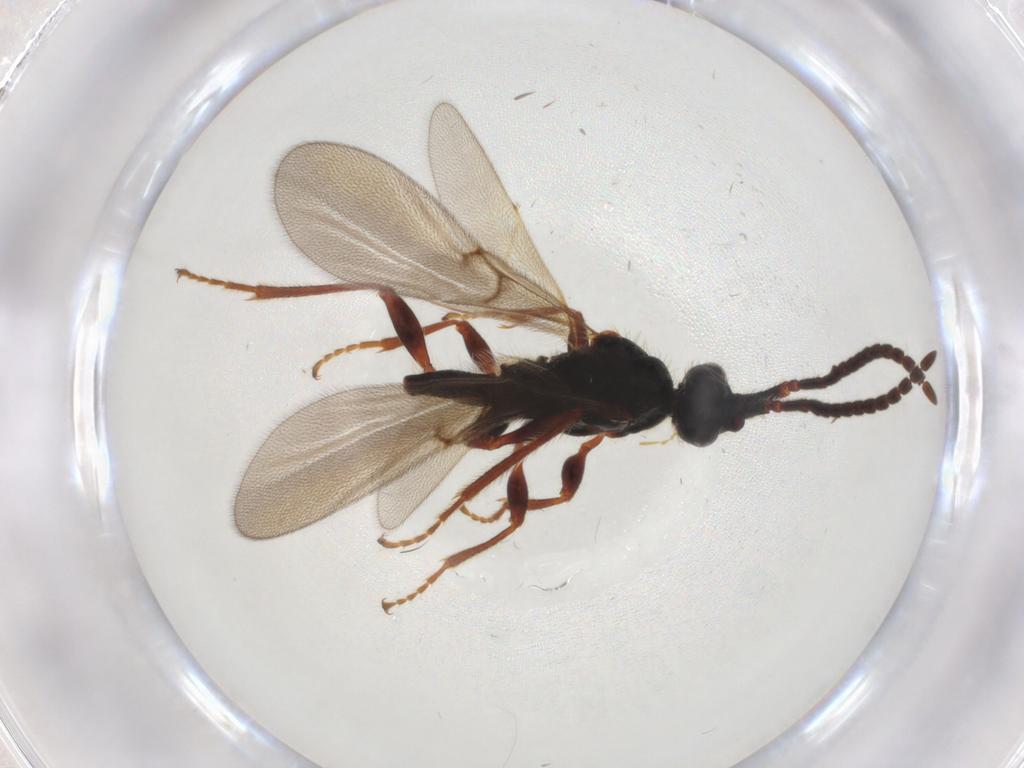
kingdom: Animalia
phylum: Arthropoda
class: Insecta
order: Hymenoptera
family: Diapriidae
